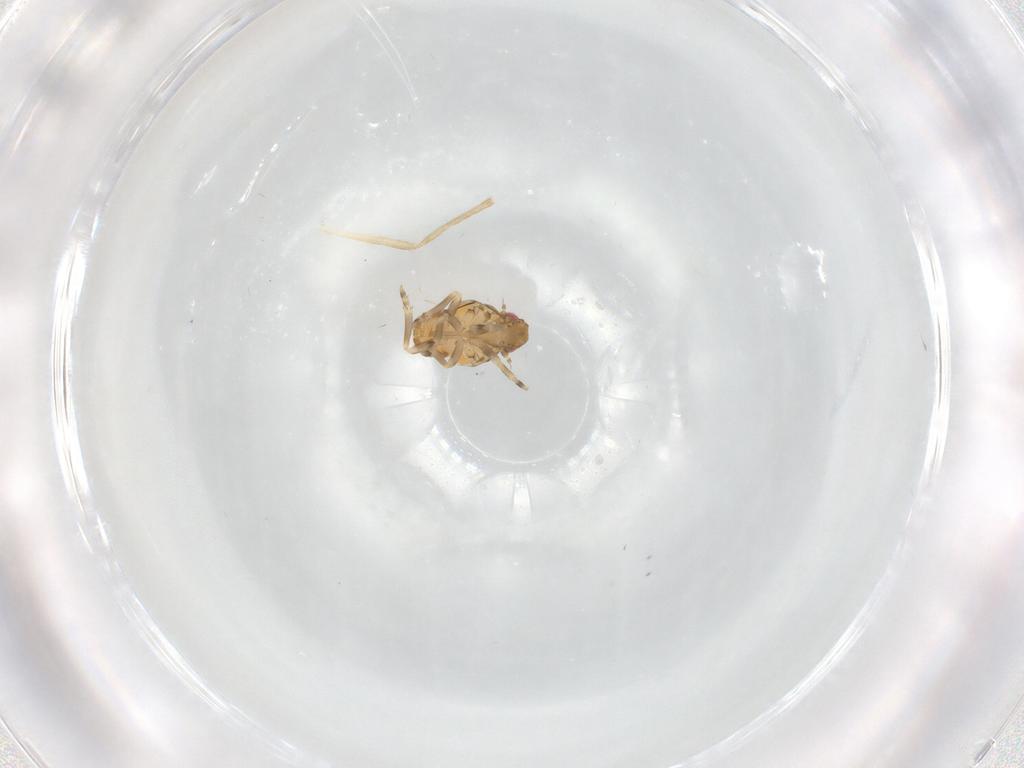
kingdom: Animalia
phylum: Arthropoda
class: Insecta
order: Hemiptera
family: Flatidae
